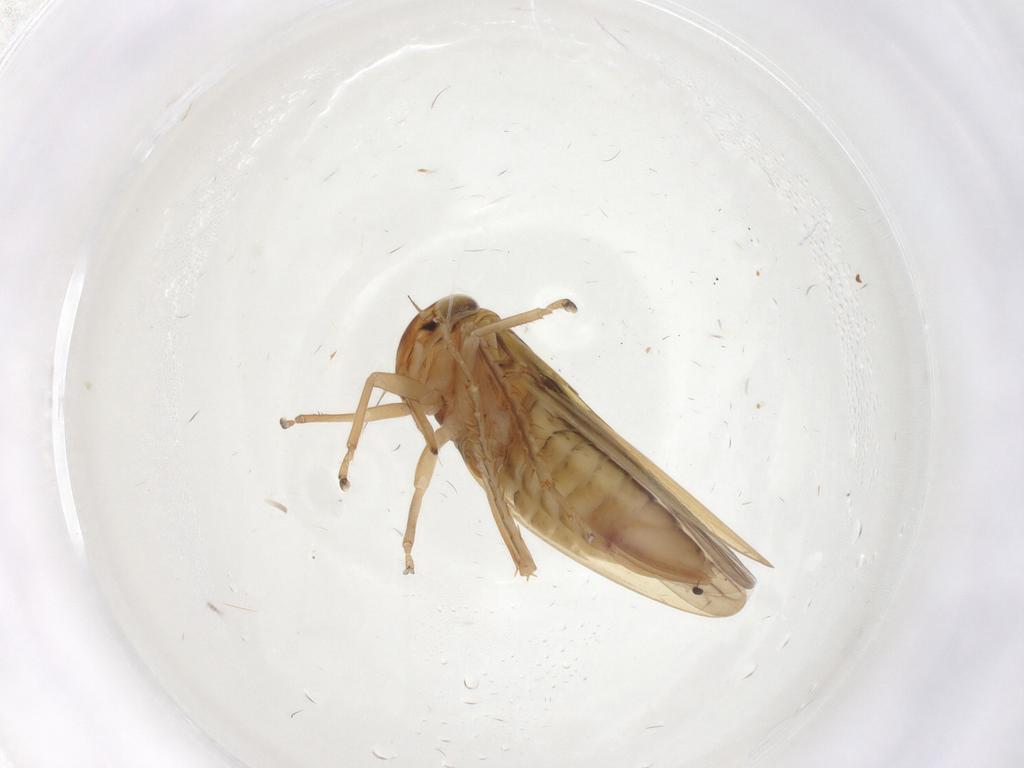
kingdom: Animalia
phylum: Arthropoda
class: Insecta
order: Hemiptera
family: Cicadellidae
